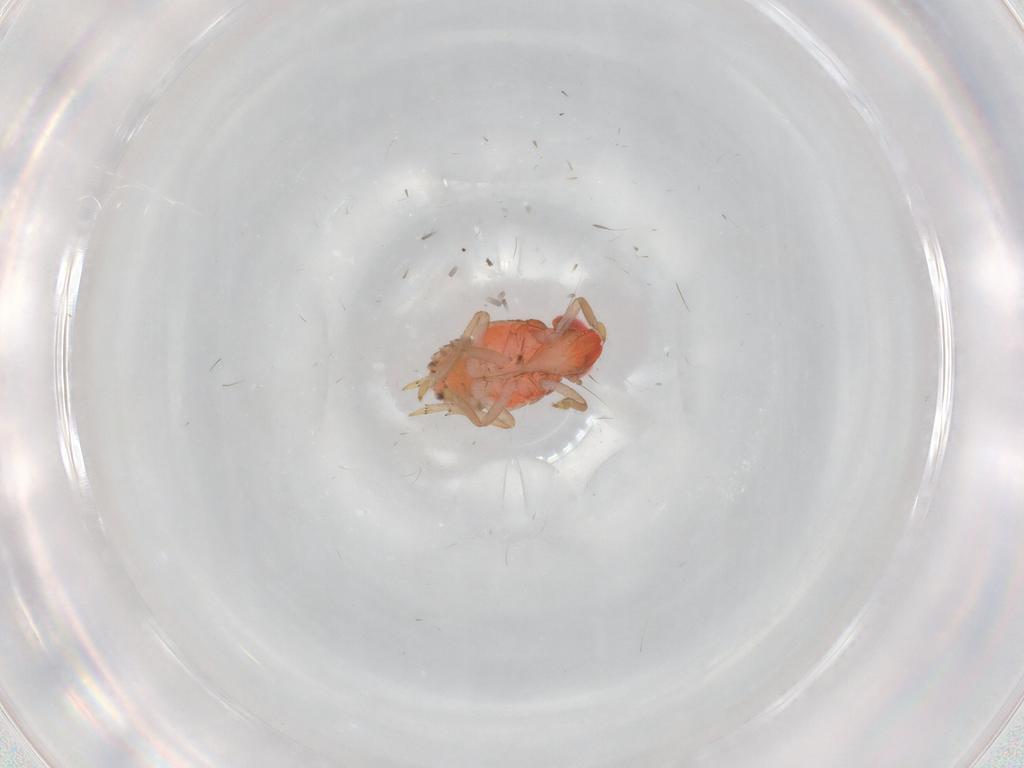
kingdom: Animalia
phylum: Arthropoda
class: Insecta
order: Hemiptera
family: Issidae
